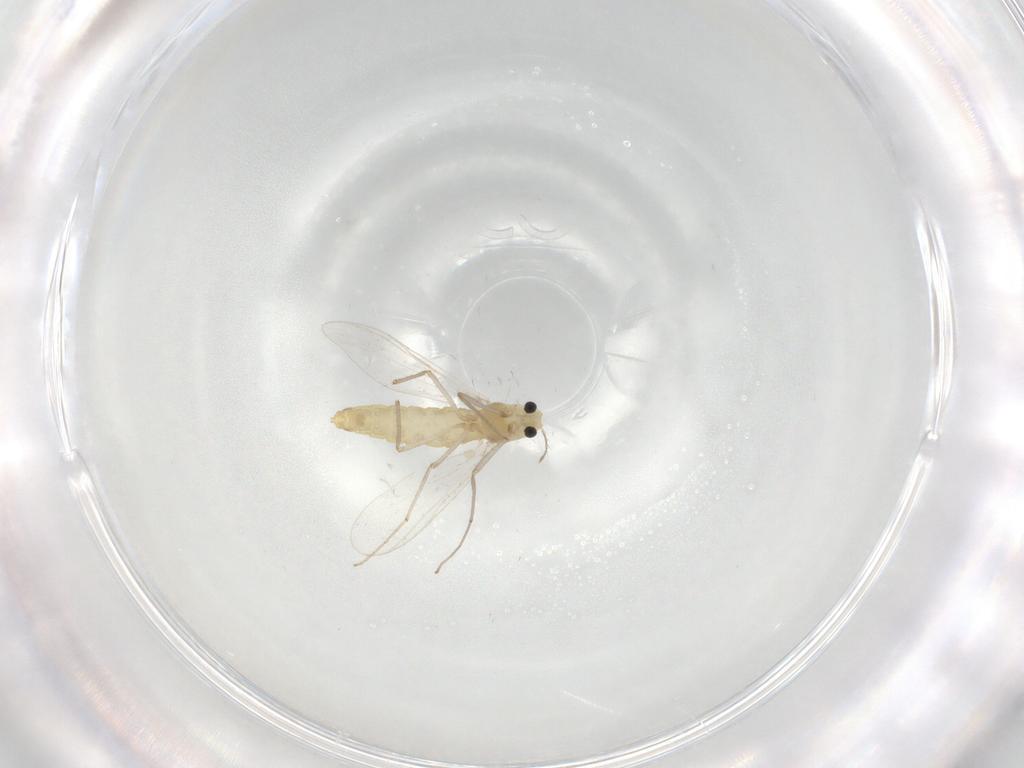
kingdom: Animalia
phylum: Arthropoda
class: Insecta
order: Diptera
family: Chironomidae
